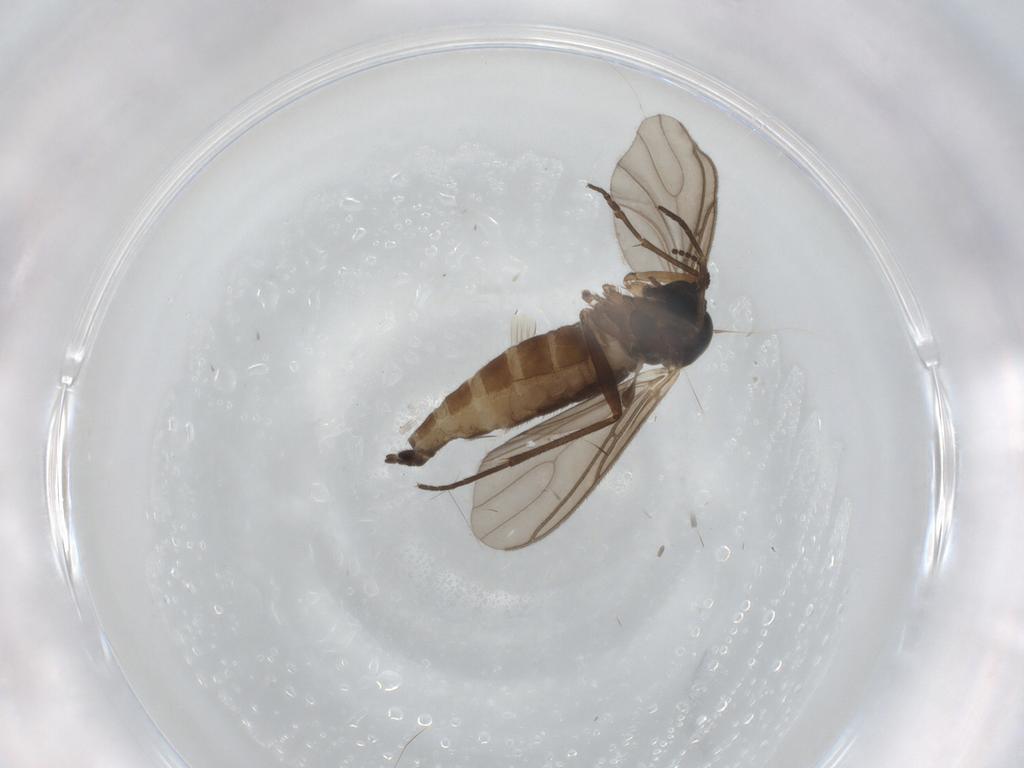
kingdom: Animalia
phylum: Arthropoda
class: Insecta
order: Diptera
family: Sciaridae
